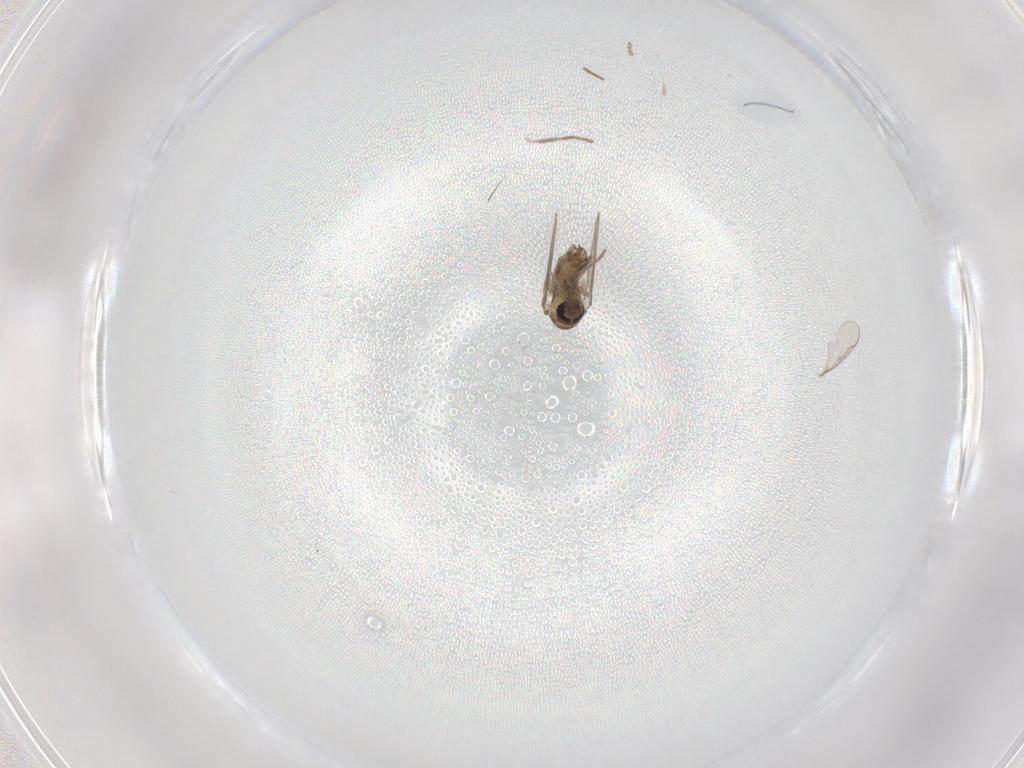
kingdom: Animalia
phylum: Arthropoda
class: Insecta
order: Diptera
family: Psychodidae
